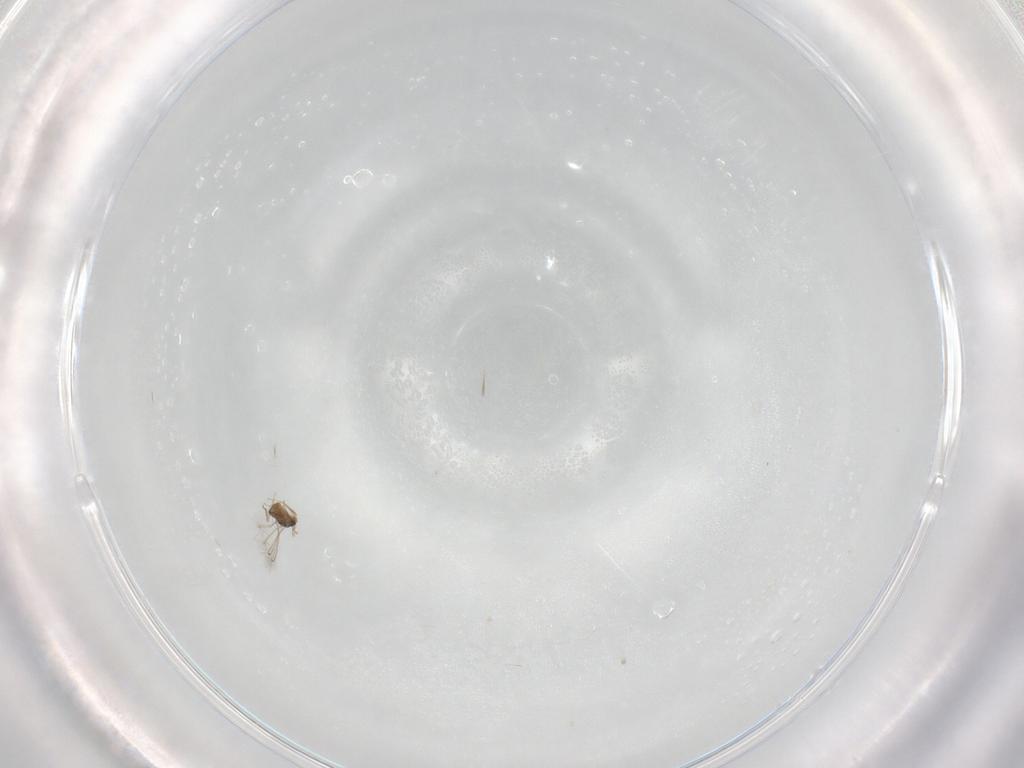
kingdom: Animalia
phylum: Arthropoda
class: Insecta
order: Hymenoptera
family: Mymaridae
